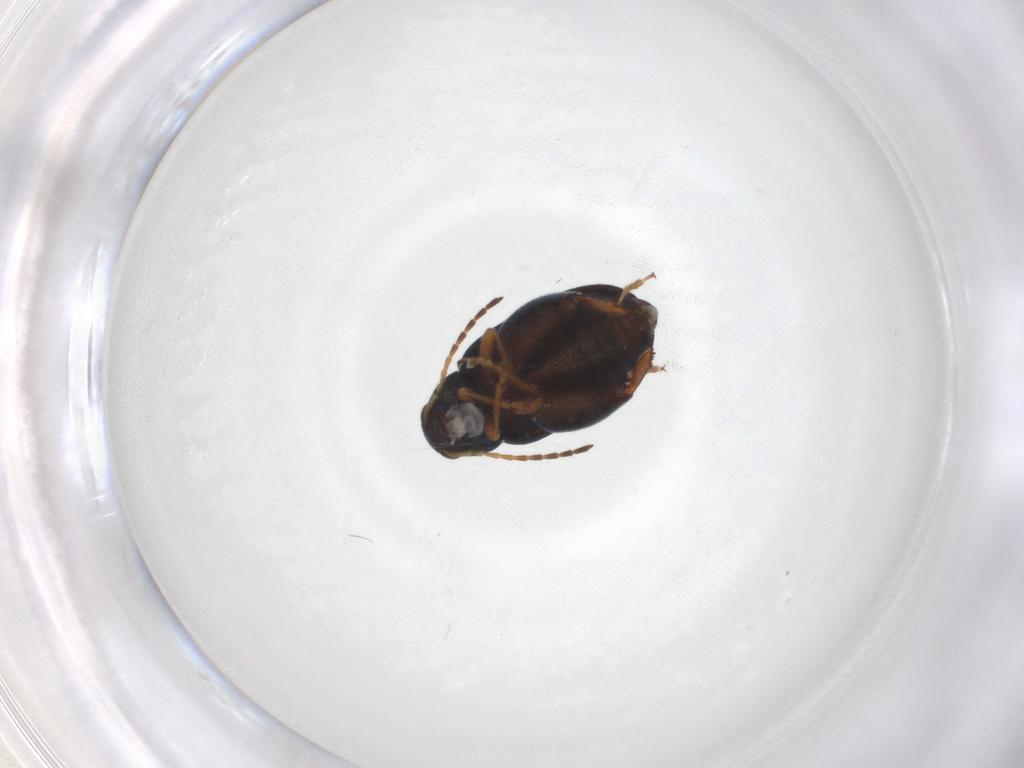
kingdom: Animalia
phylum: Arthropoda
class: Insecta
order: Coleoptera
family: Chrysomelidae
